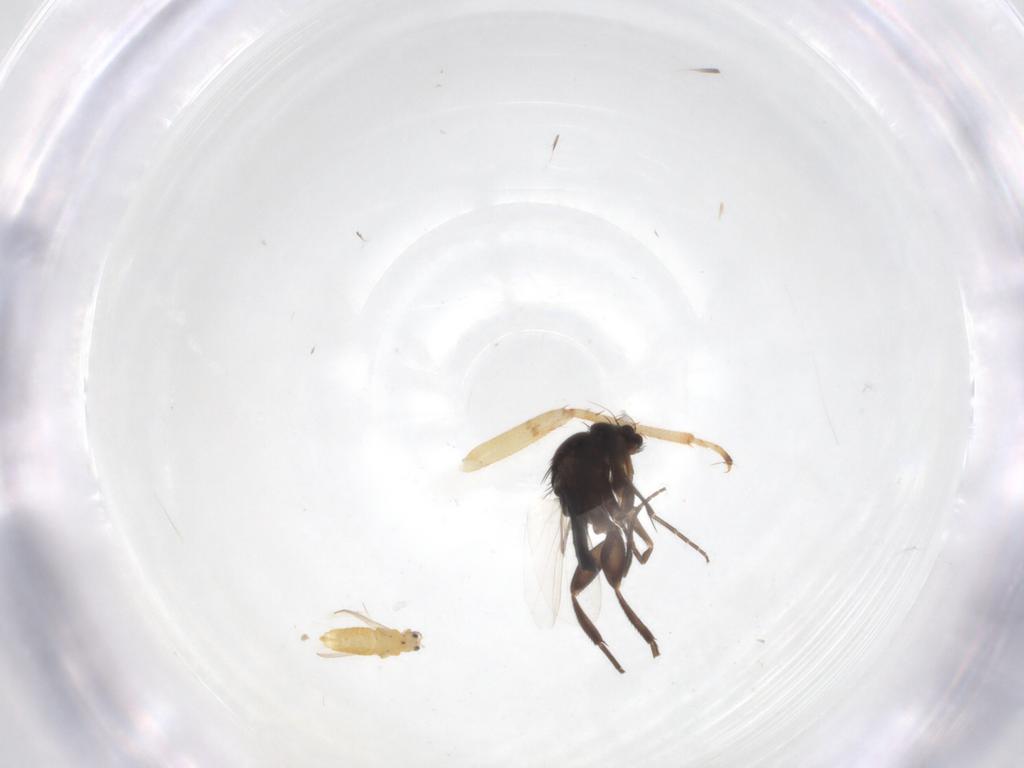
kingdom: Animalia
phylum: Arthropoda
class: Insecta
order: Diptera
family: Phoridae
